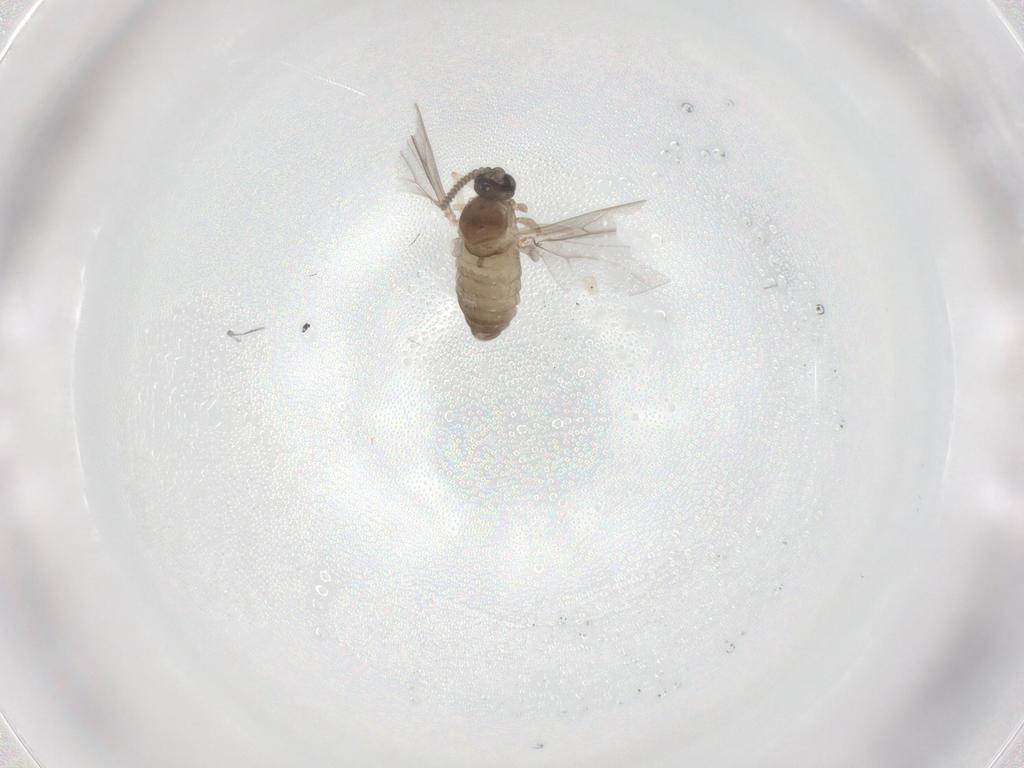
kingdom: Animalia
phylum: Arthropoda
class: Insecta
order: Diptera
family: Cecidomyiidae
